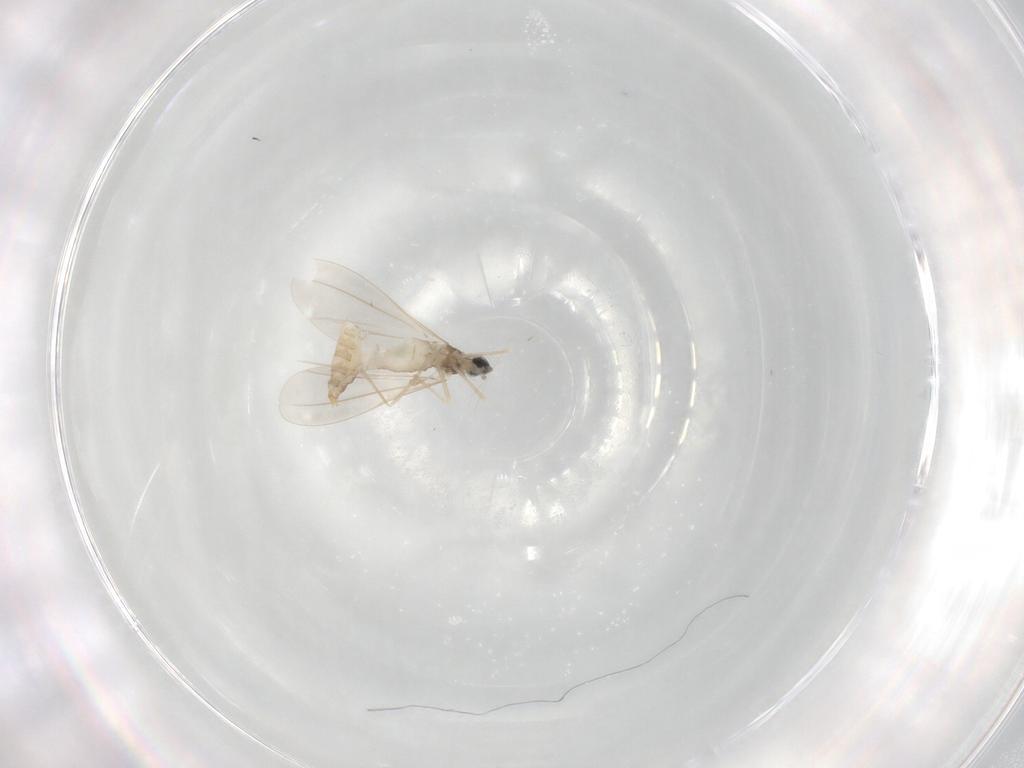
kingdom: Animalia
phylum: Arthropoda
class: Insecta
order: Diptera
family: Cecidomyiidae
